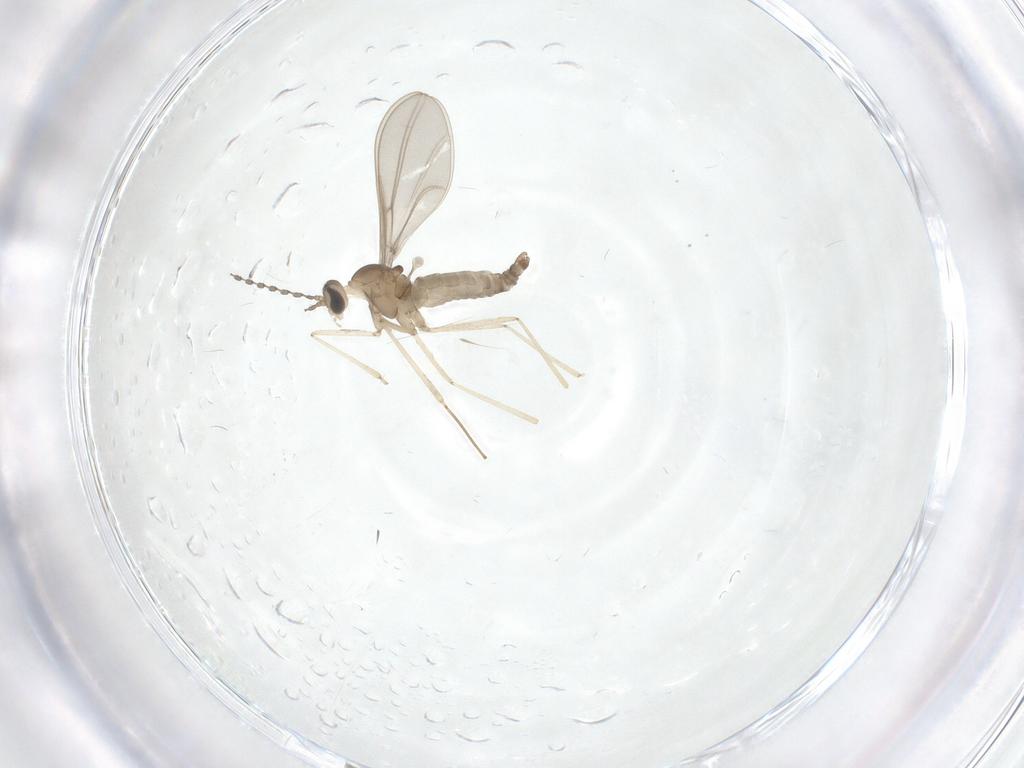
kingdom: Animalia
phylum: Arthropoda
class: Insecta
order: Diptera
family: Cecidomyiidae
